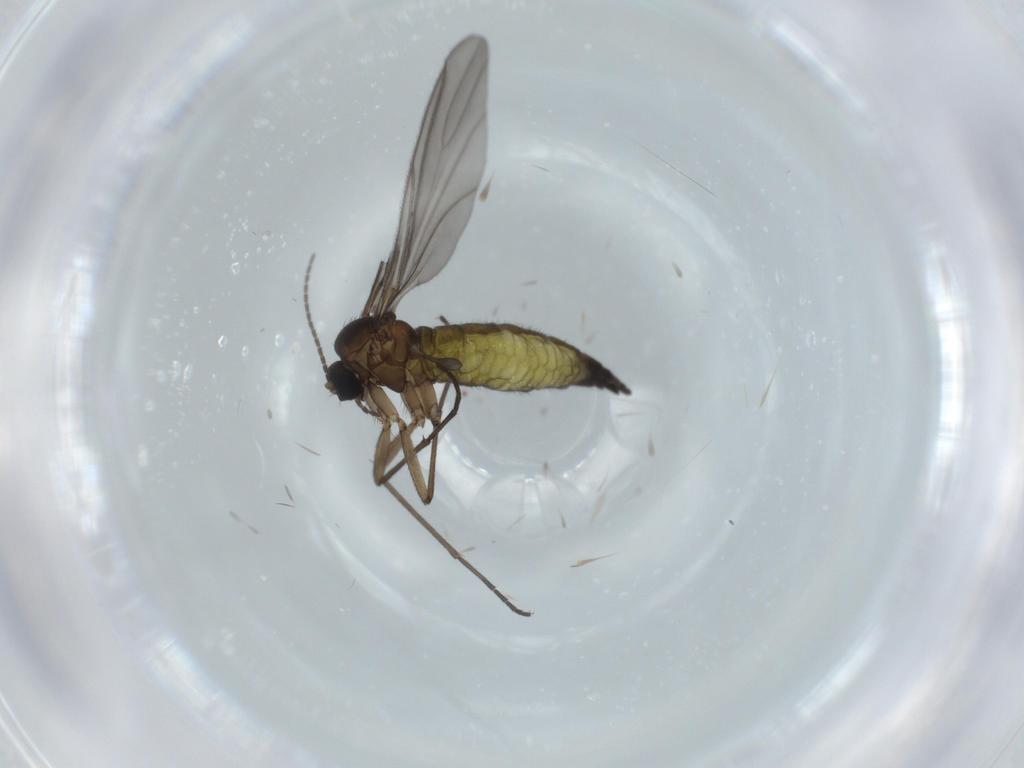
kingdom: Animalia
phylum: Arthropoda
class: Insecta
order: Diptera
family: Sciaridae
